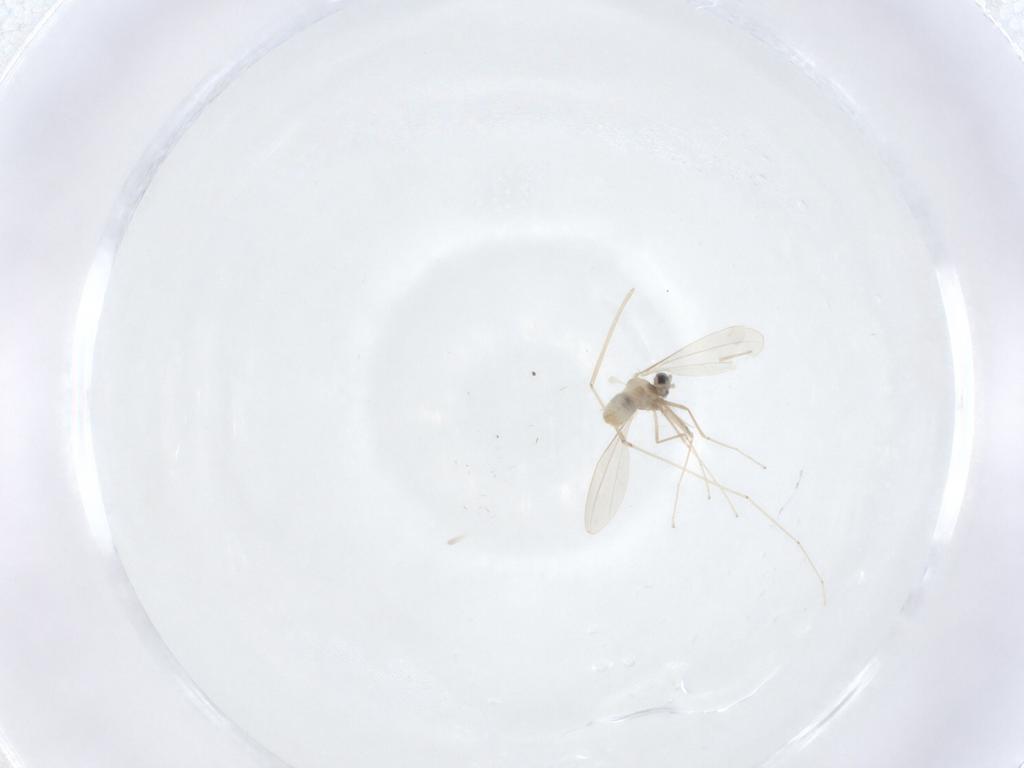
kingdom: Animalia
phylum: Arthropoda
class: Insecta
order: Diptera
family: Cecidomyiidae
